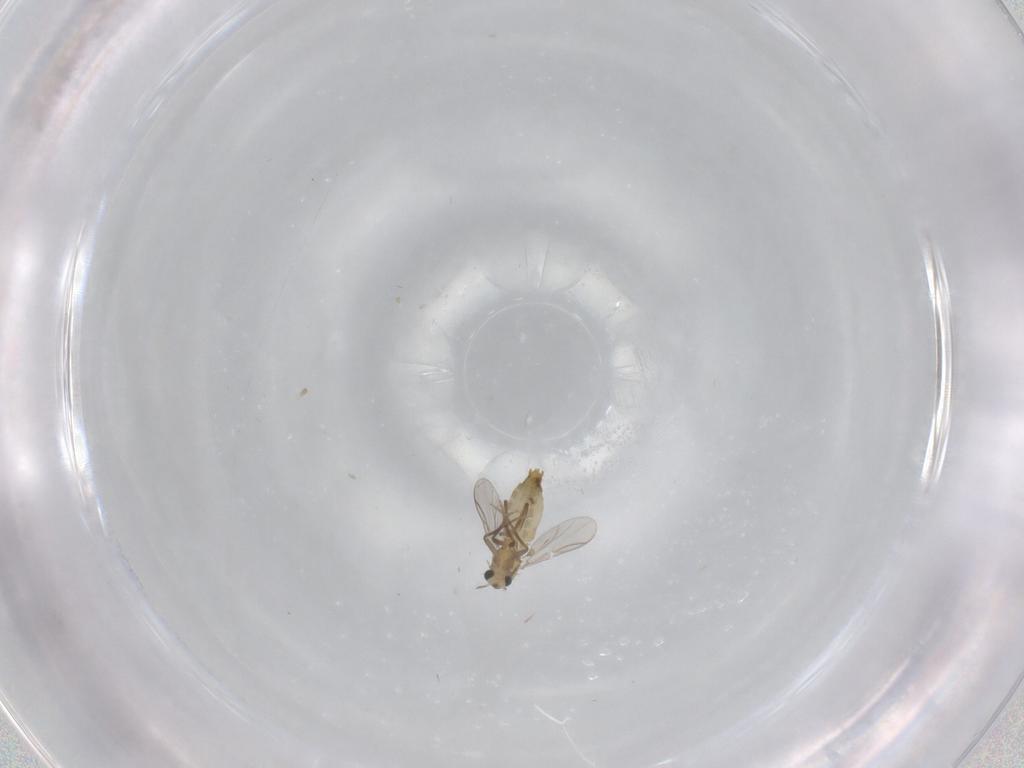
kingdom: Animalia
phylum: Arthropoda
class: Insecta
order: Diptera
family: Chironomidae
